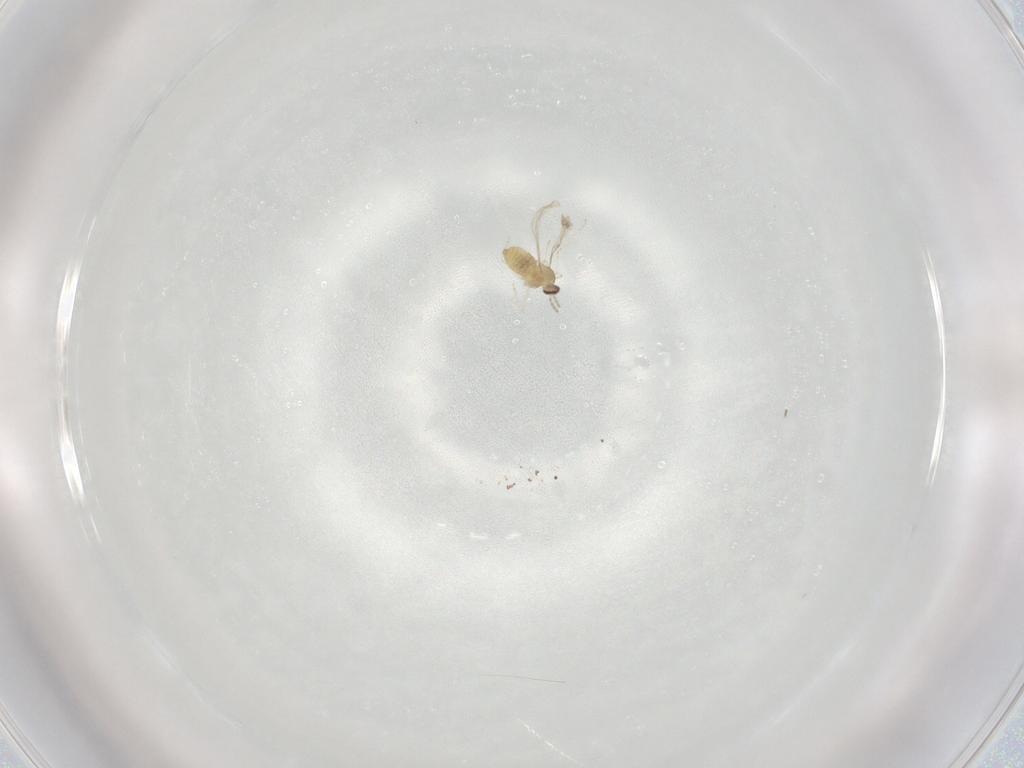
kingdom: Animalia
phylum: Arthropoda
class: Insecta
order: Diptera
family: Cecidomyiidae
